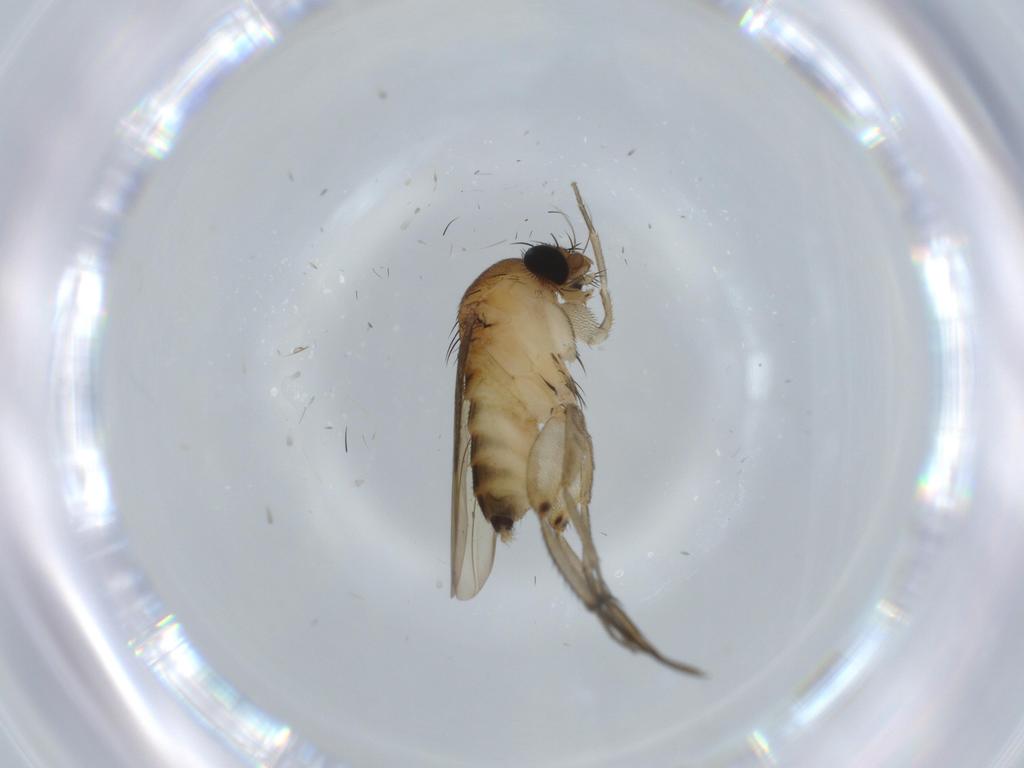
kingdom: Animalia
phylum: Arthropoda
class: Insecta
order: Diptera
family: Phoridae
